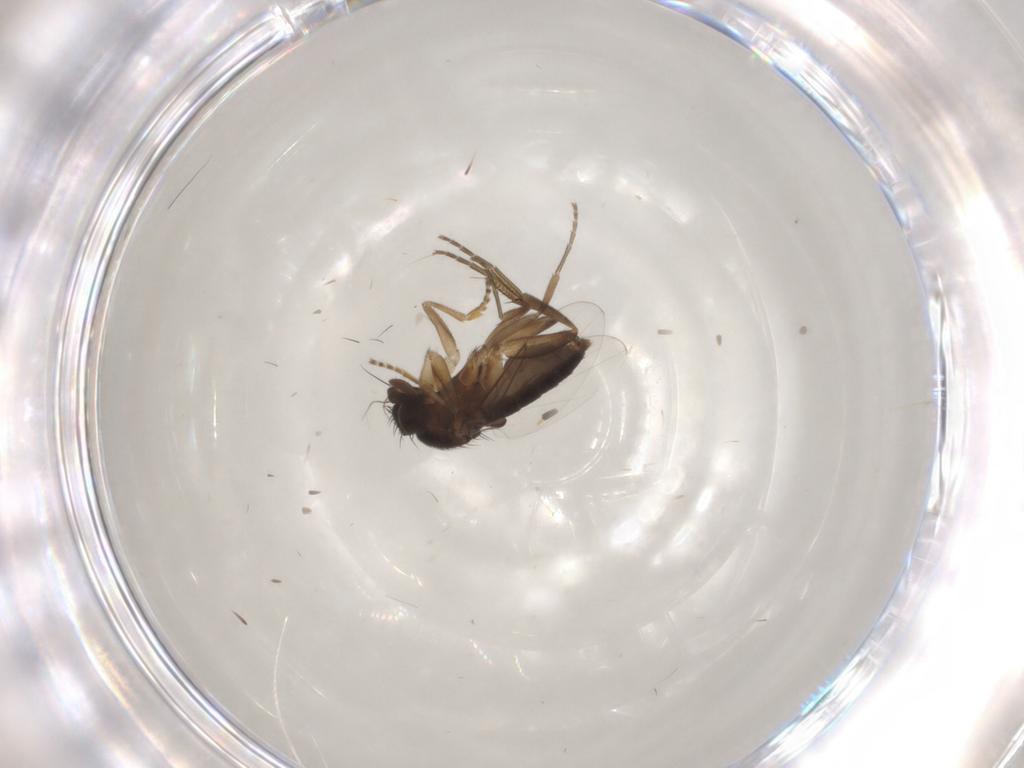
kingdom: Animalia
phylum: Arthropoda
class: Insecta
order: Diptera
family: Phoridae
